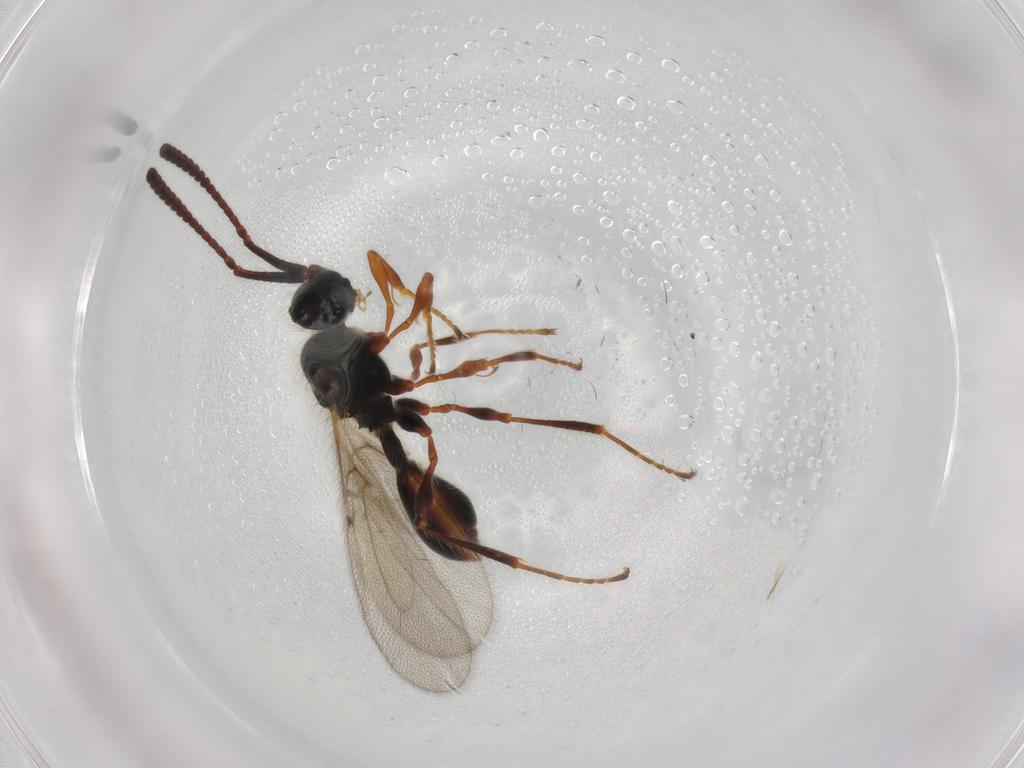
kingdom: Animalia
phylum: Arthropoda
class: Insecta
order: Hymenoptera
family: Diapriidae
